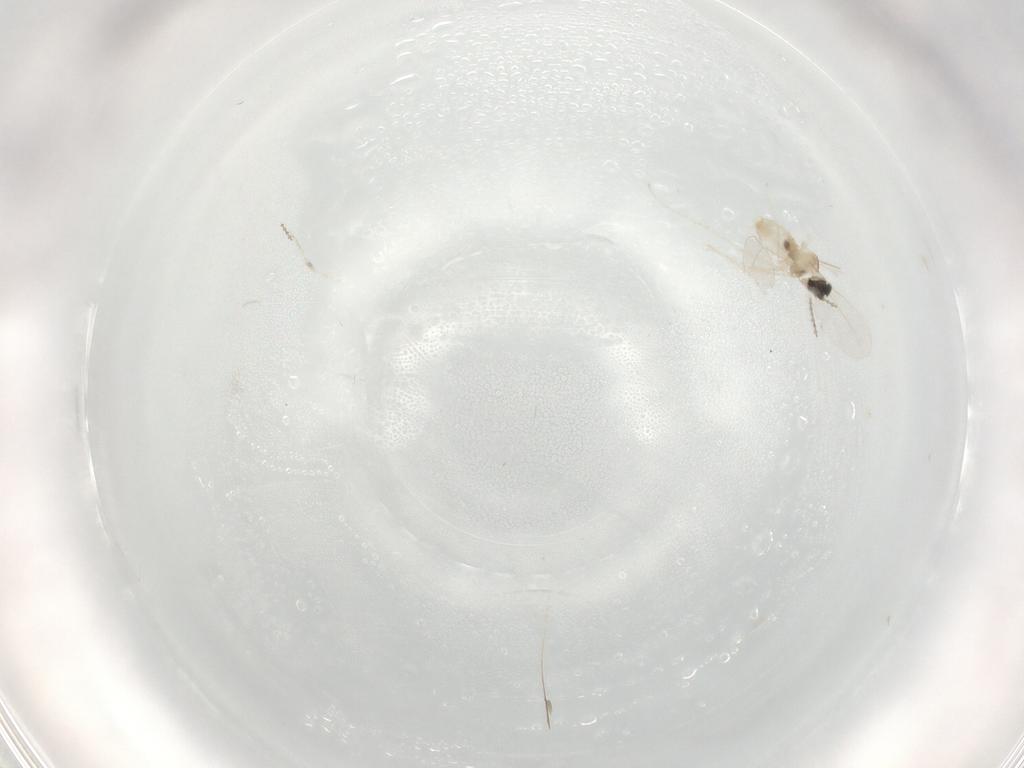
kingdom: Animalia
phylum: Arthropoda
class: Insecta
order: Diptera
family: Cecidomyiidae
